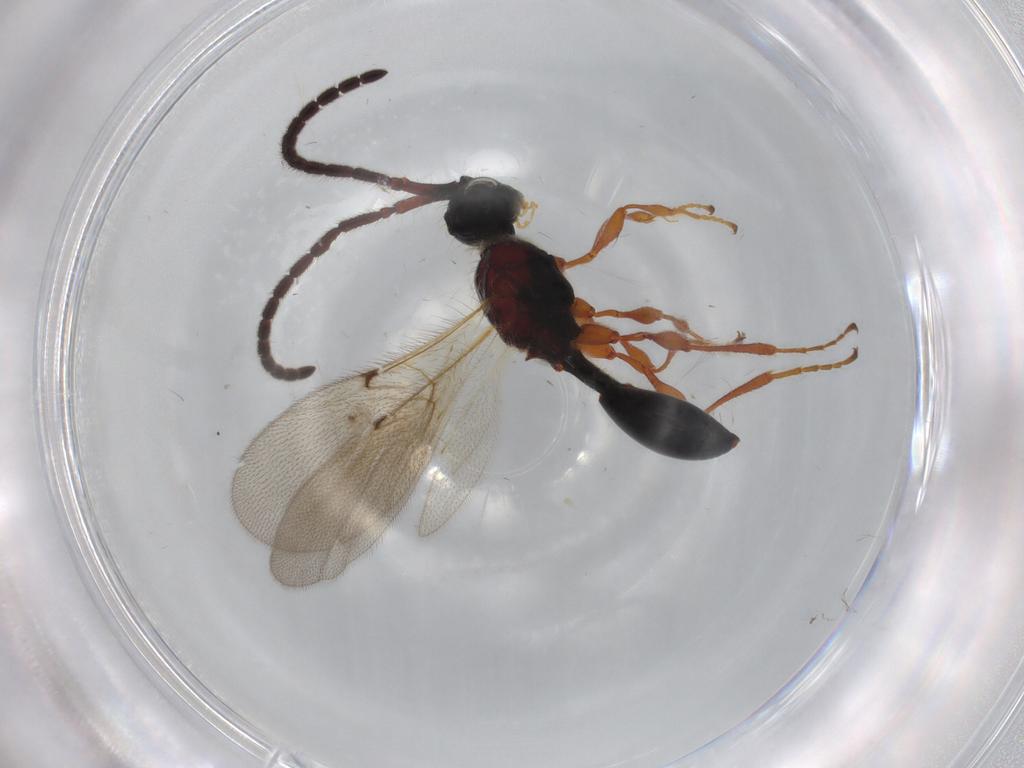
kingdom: Animalia
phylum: Arthropoda
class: Insecta
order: Hymenoptera
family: Diapriidae
